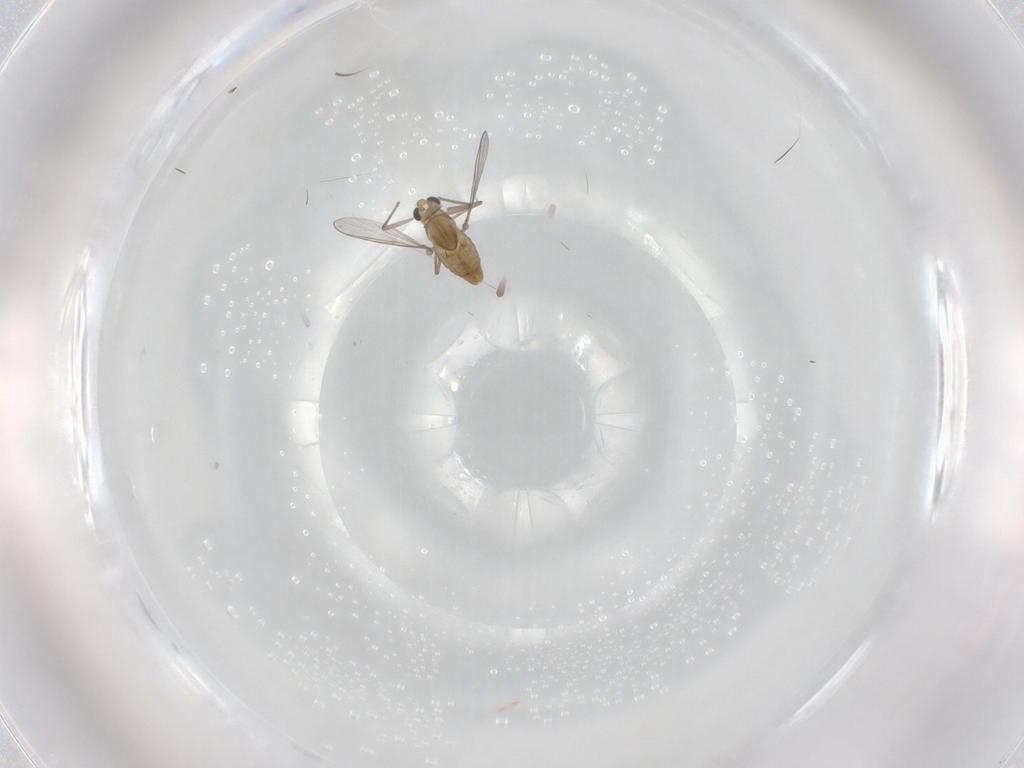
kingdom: Animalia
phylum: Arthropoda
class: Insecta
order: Diptera
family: Chironomidae
